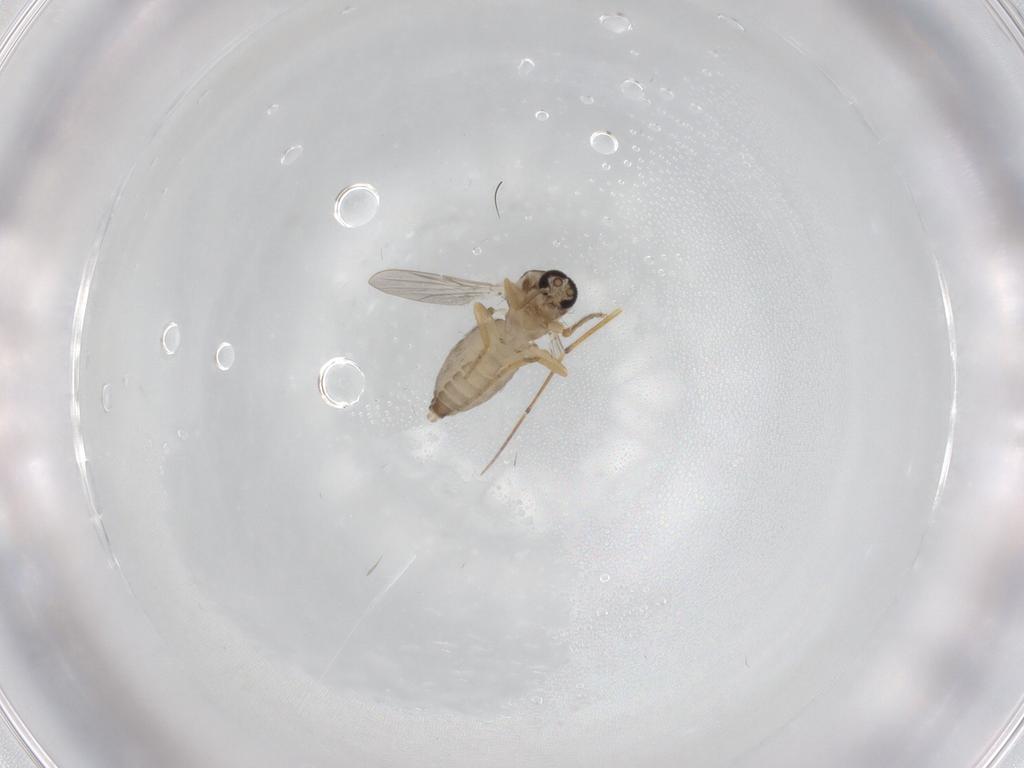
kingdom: Animalia
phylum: Arthropoda
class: Insecta
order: Diptera
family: Ceratopogonidae
